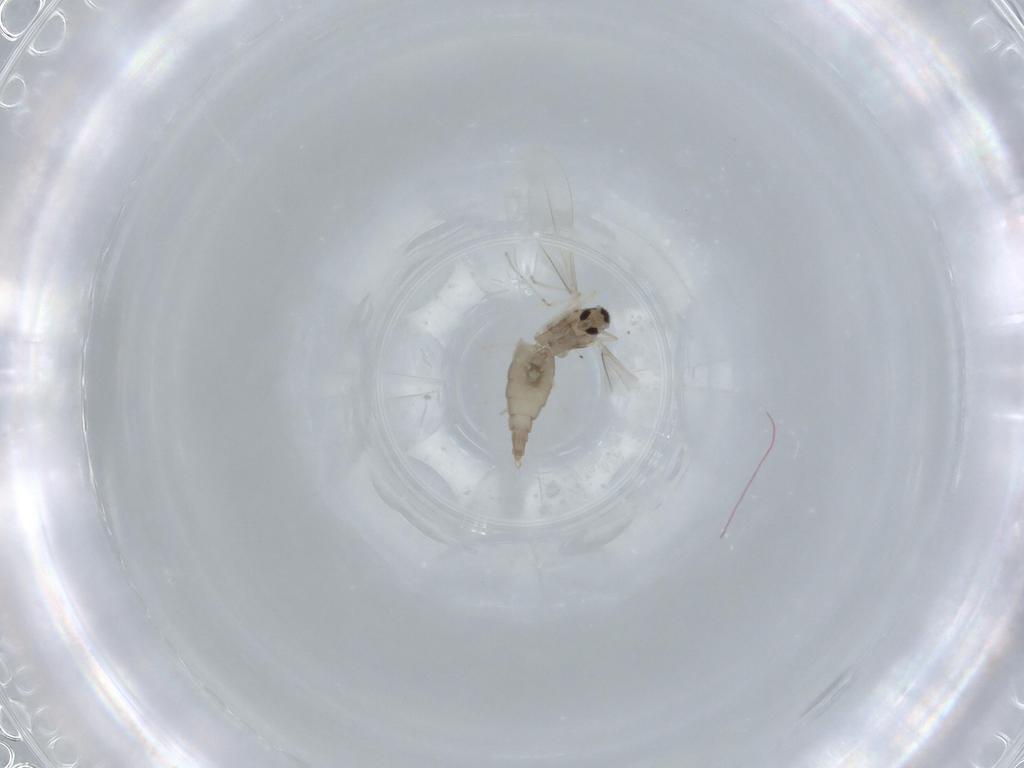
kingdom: Animalia
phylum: Arthropoda
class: Insecta
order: Diptera
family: Cecidomyiidae
